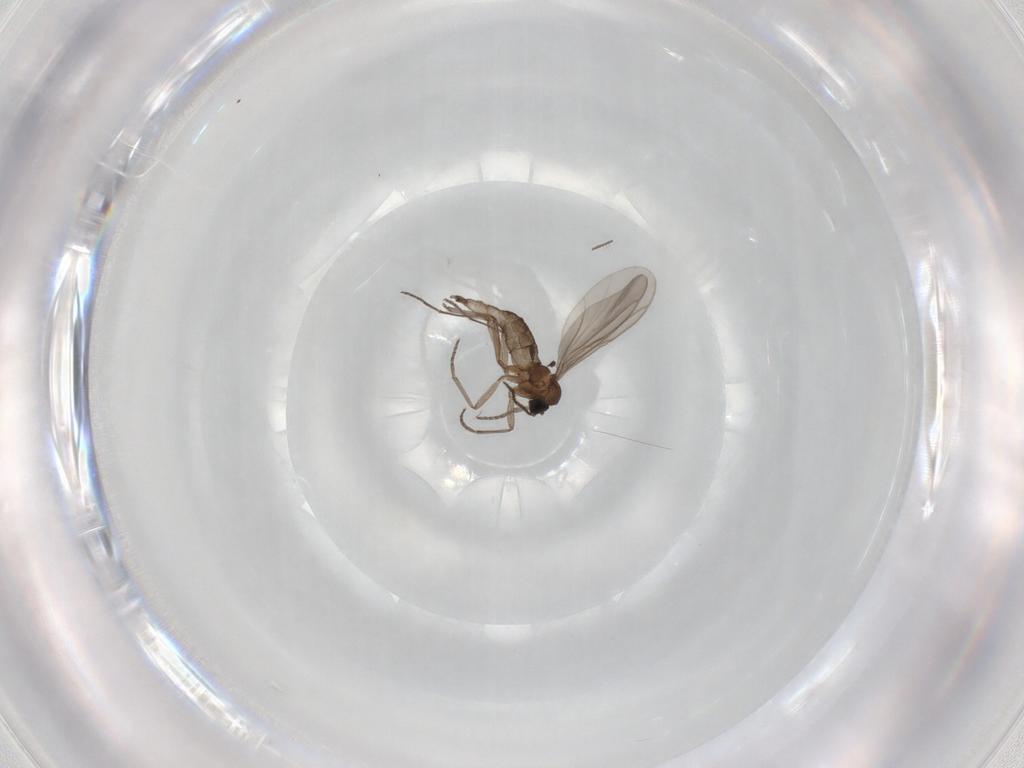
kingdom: Animalia
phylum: Arthropoda
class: Insecta
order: Diptera
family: Sciaridae
